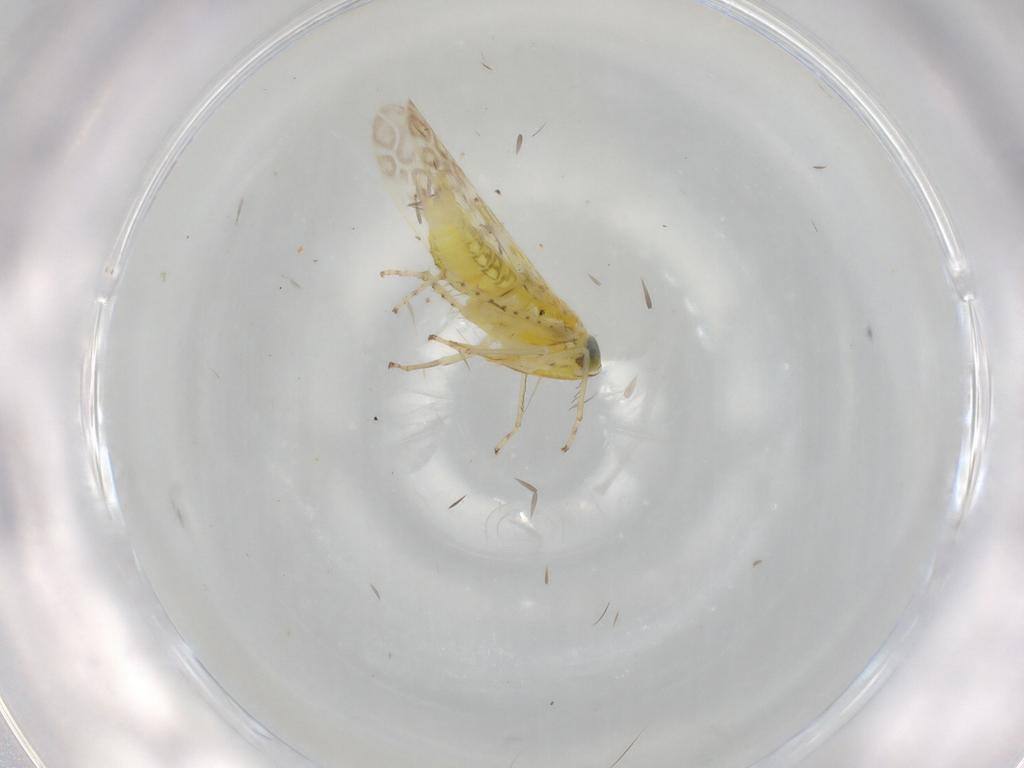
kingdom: Animalia
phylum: Arthropoda
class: Insecta
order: Hemiptera
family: Cicadellidae
